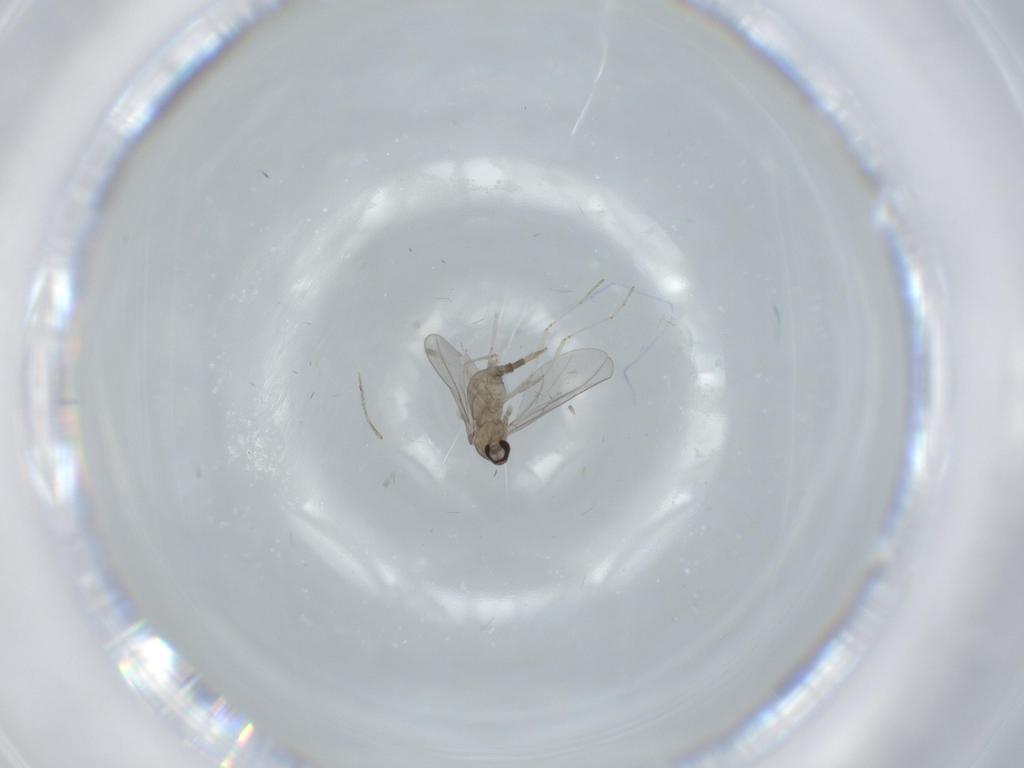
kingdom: Animalia
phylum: Arthropoda
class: Insecta
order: Diptera
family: Cecidomyiidae
